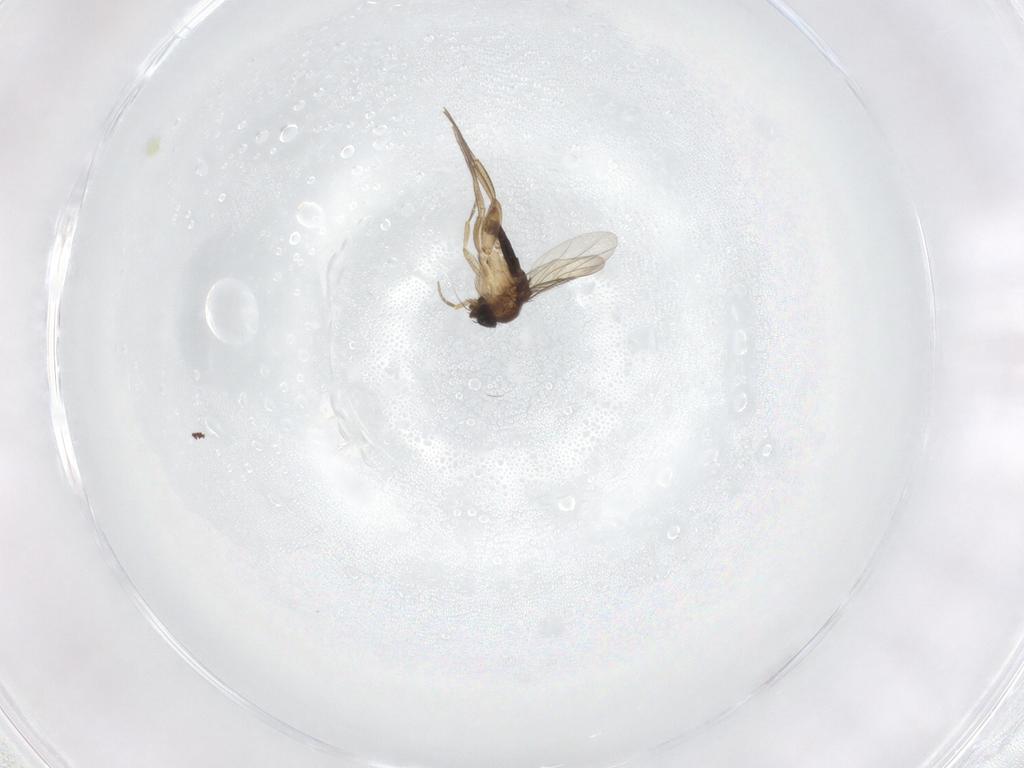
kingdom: Animalia
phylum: Arthropoda
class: Insecta
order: Diptera
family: Phoridae
